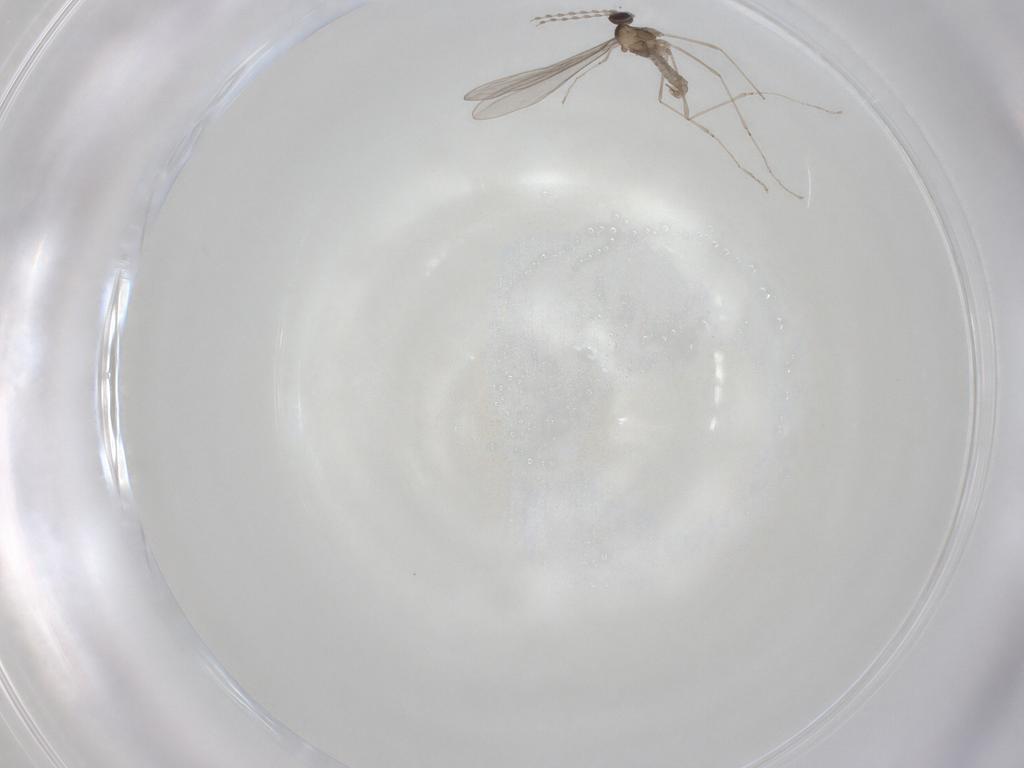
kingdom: Animalia
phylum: Arthropoda
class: Insecta
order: Diptera
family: Cecidomyiidae
